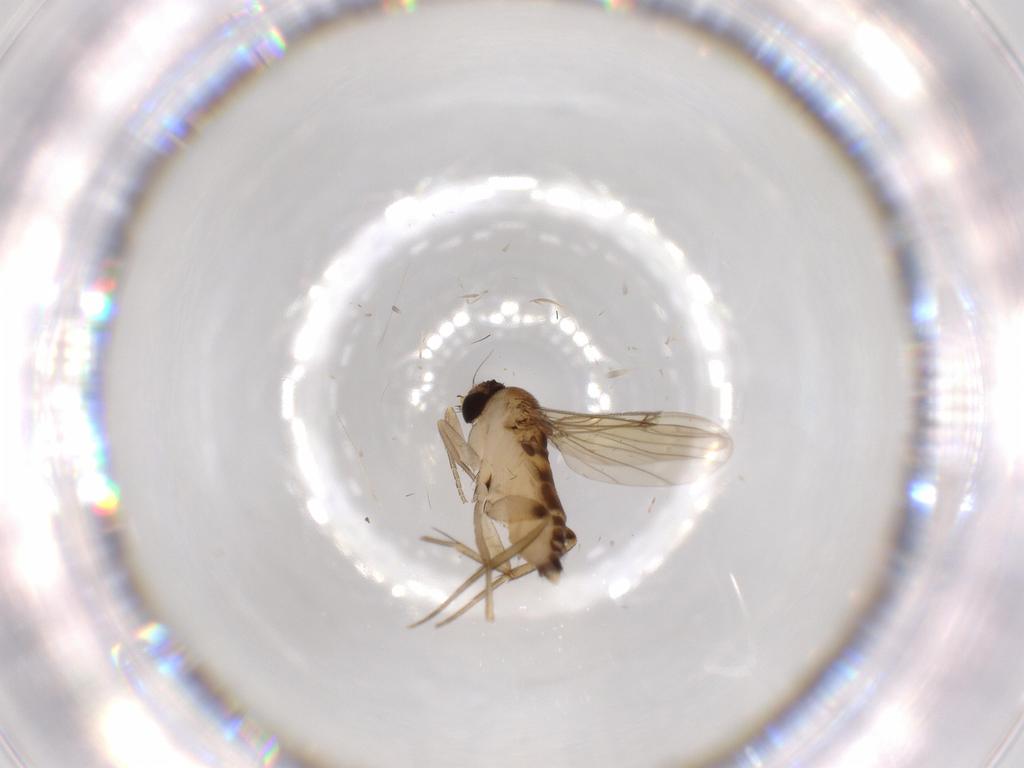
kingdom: Animalia
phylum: Arthropoda
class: Insecta
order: Diptera
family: Phoridae
